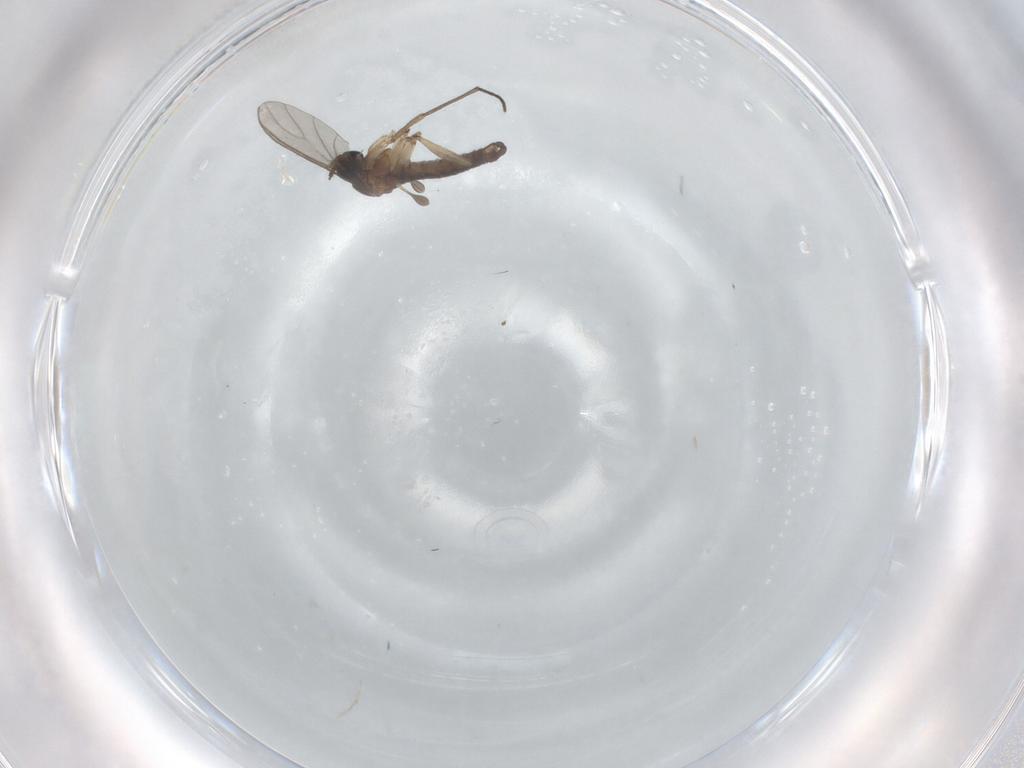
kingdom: Animalia
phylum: Arthropoda
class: Insecta
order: Diptera
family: Sciaridae
